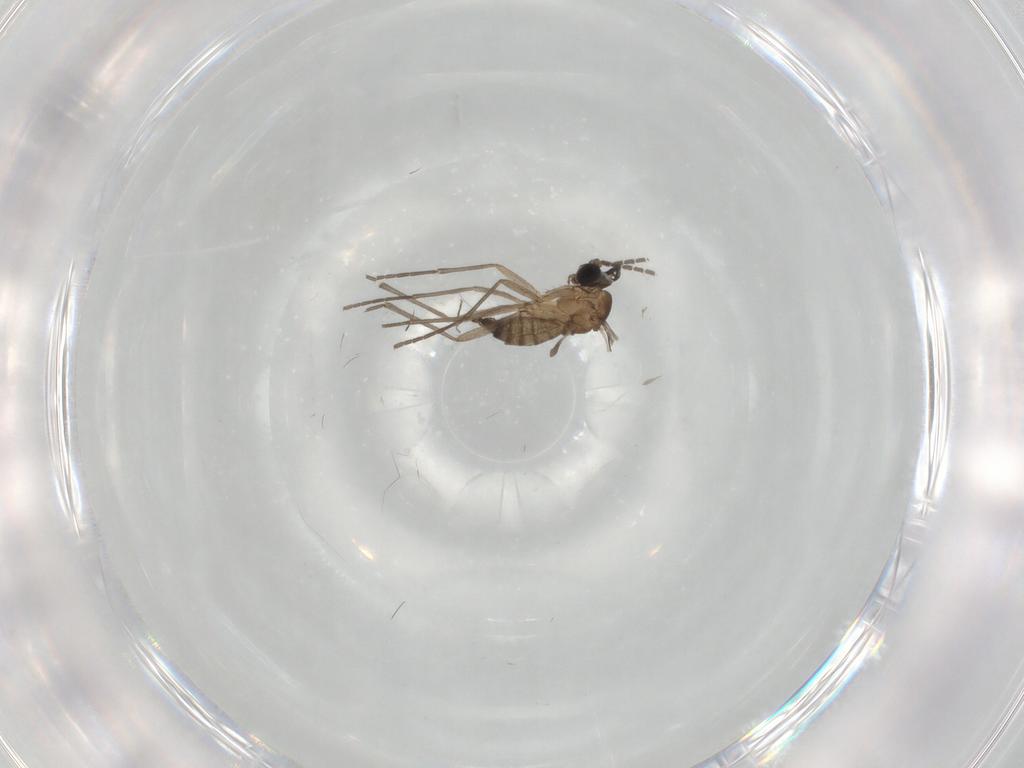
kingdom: Animalia
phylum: Arthropoda
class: Insecta
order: Diptera
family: Sciaridae
